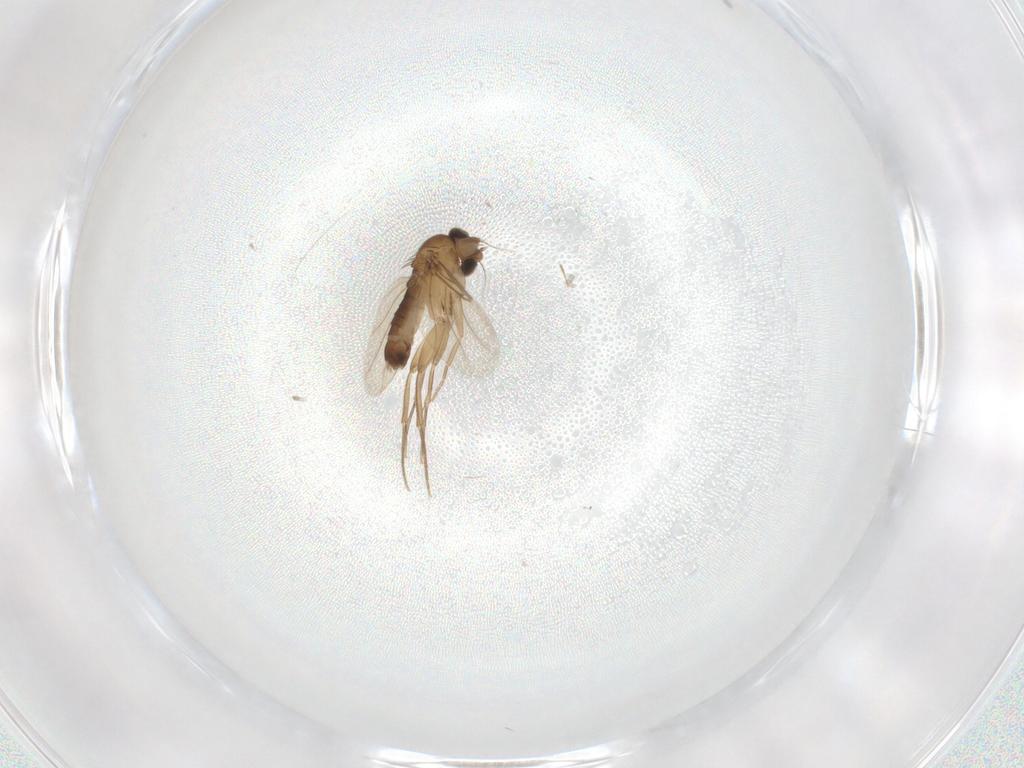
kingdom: Animalia
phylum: Arthropoda
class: Insecta
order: Diptera
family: Phoridae
